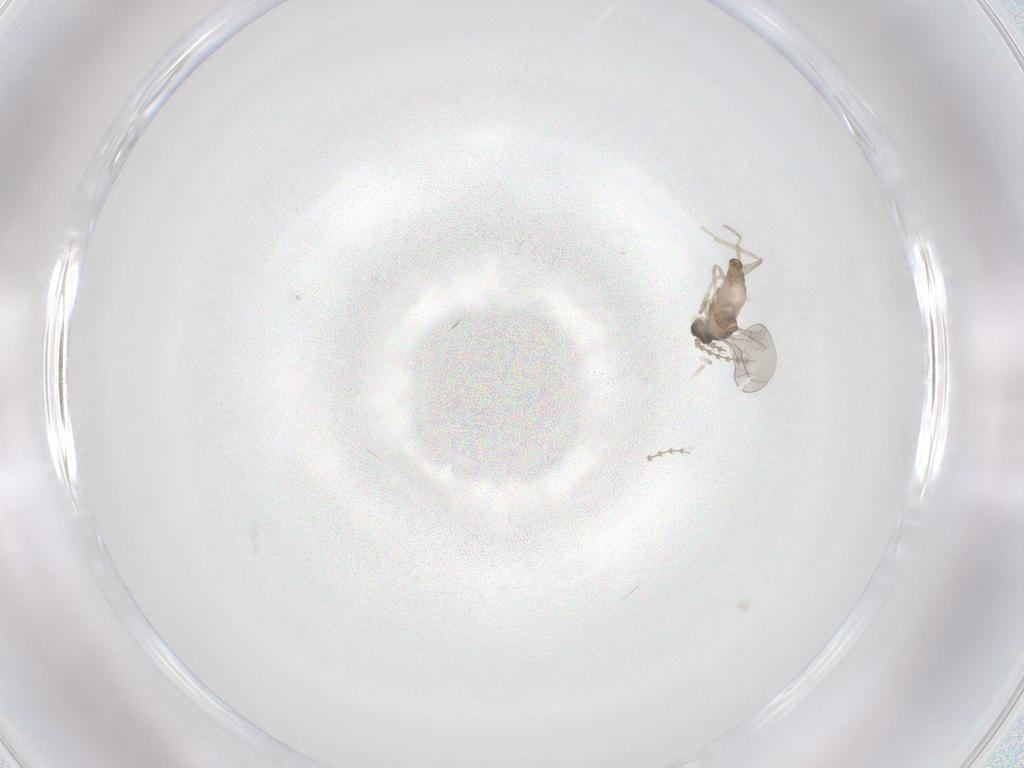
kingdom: Animalia
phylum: Arthropoda
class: Insecta
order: Diptera
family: Cecidomyiidae
